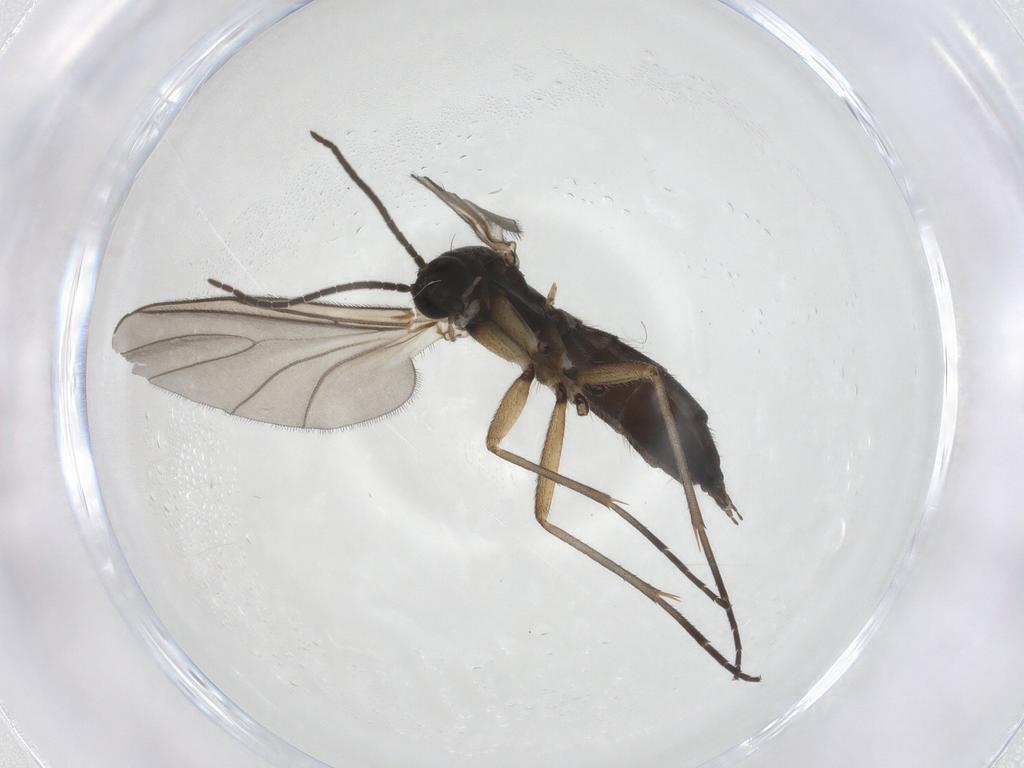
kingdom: Animalia
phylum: Arthropoda
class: Insecta
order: Diptera
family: Sciaridae
